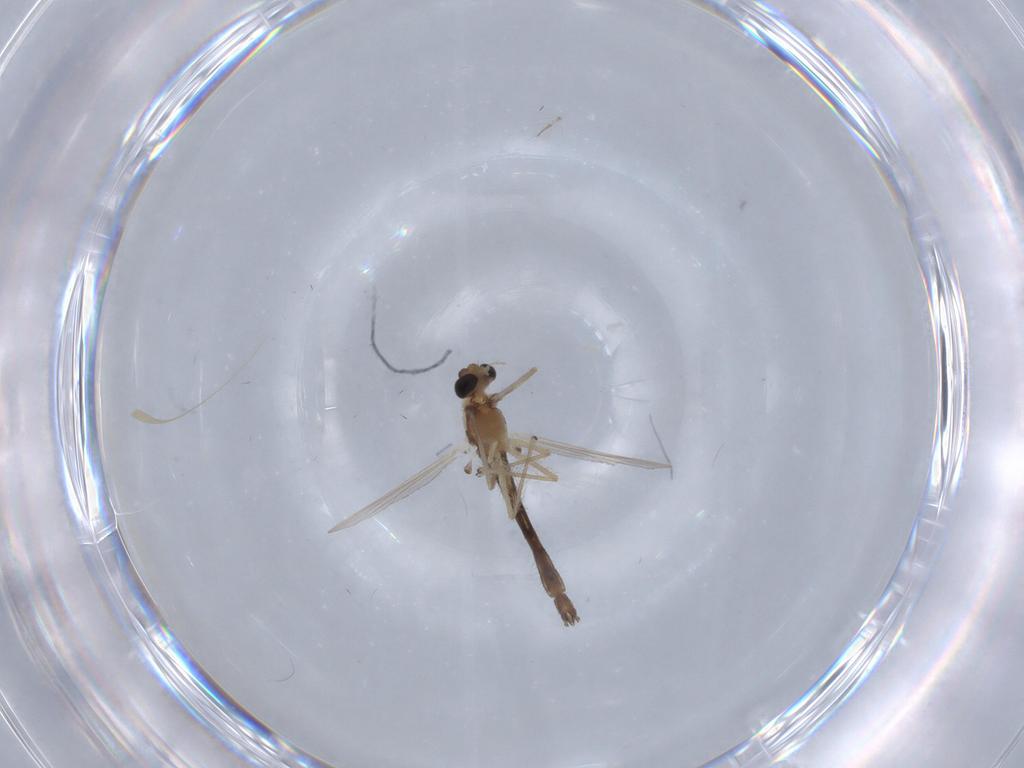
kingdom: Animalia
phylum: Arthropoda
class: Insecta
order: Diptera
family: Chironomidae
